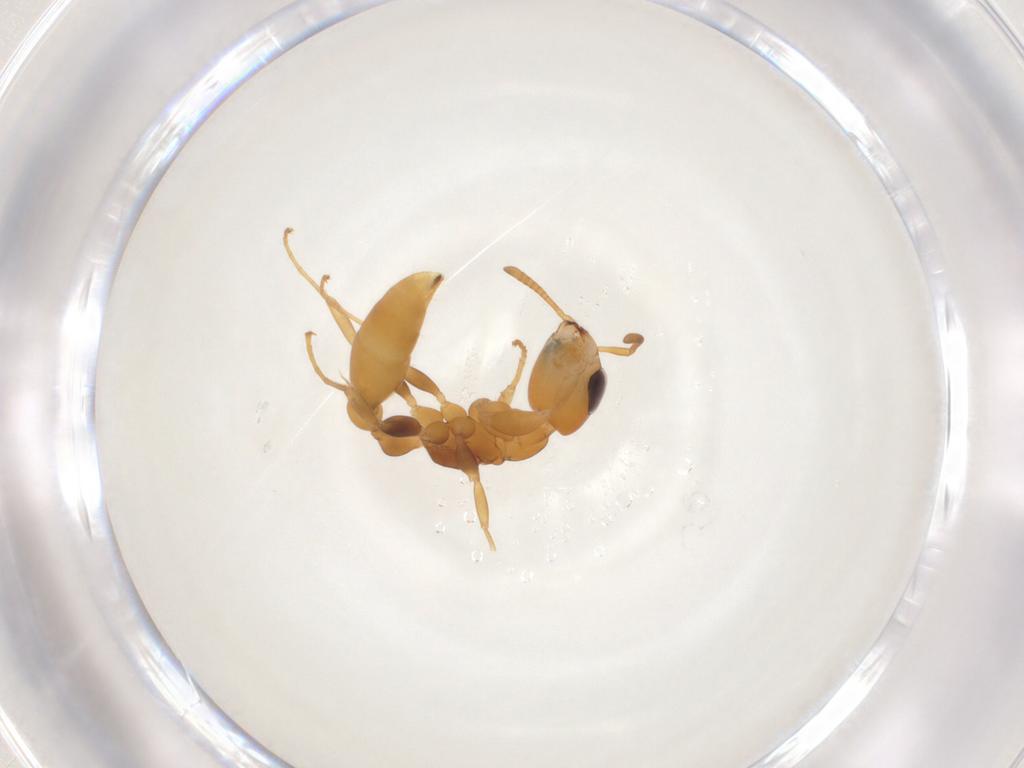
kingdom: Animalia
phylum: Arthropoda
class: Insecta
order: Hymenoptera
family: Formicidae
